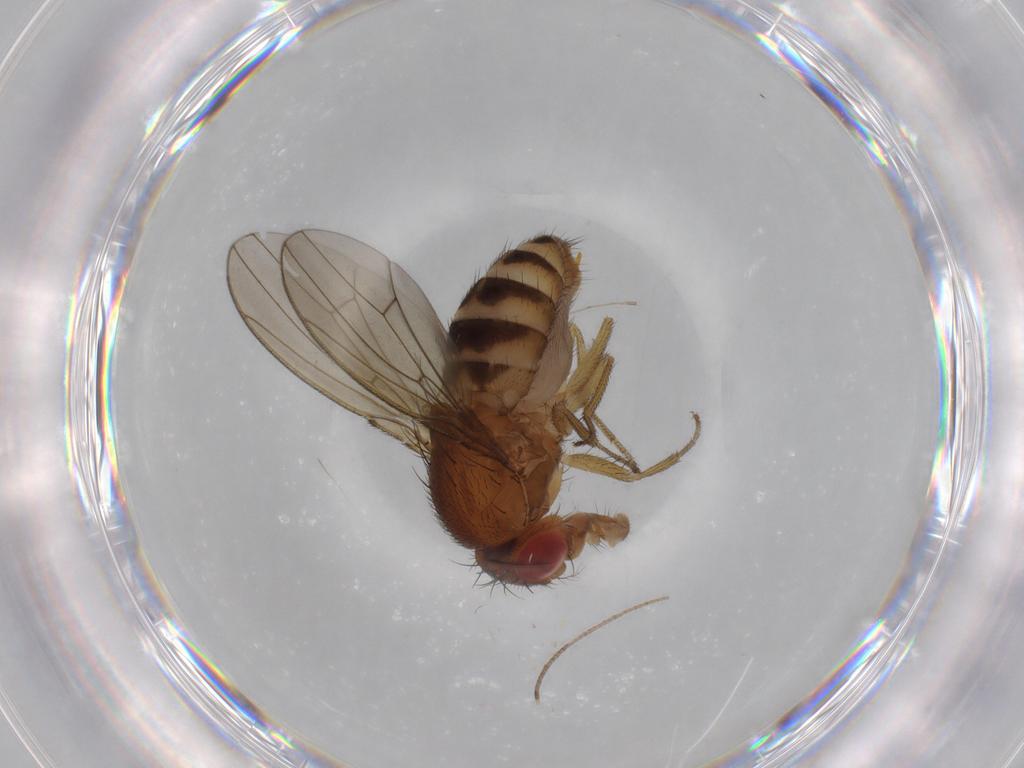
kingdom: Animalia
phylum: Arthropoda
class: Insecta
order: Diptera
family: Drosophilidae
